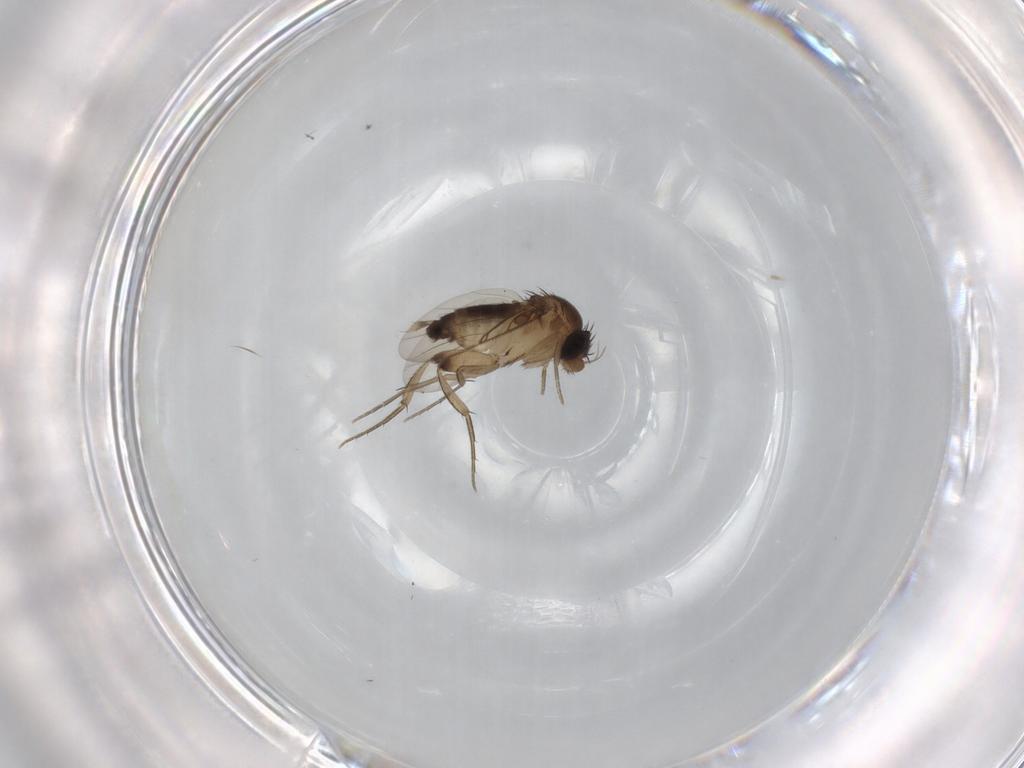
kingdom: Animalia
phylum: Arthropoda
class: Insecta
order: Diptera
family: Phoridae
